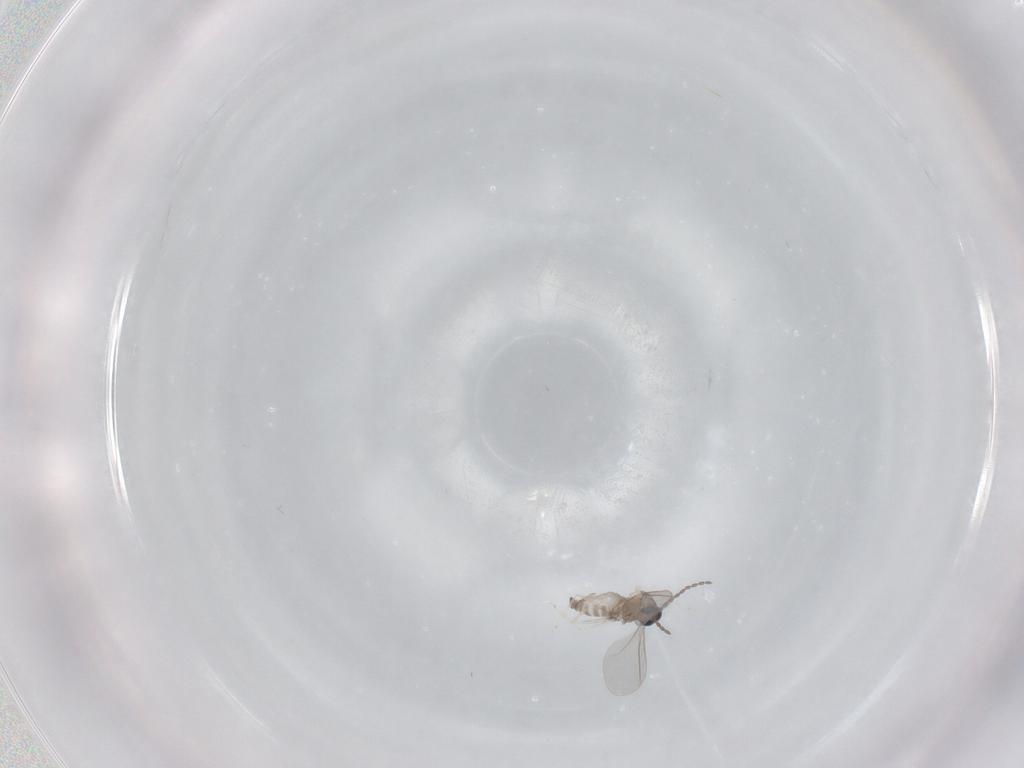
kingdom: Animalia
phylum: Arthropoda
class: Insecta
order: Diptera
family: Cecidomyiidae
